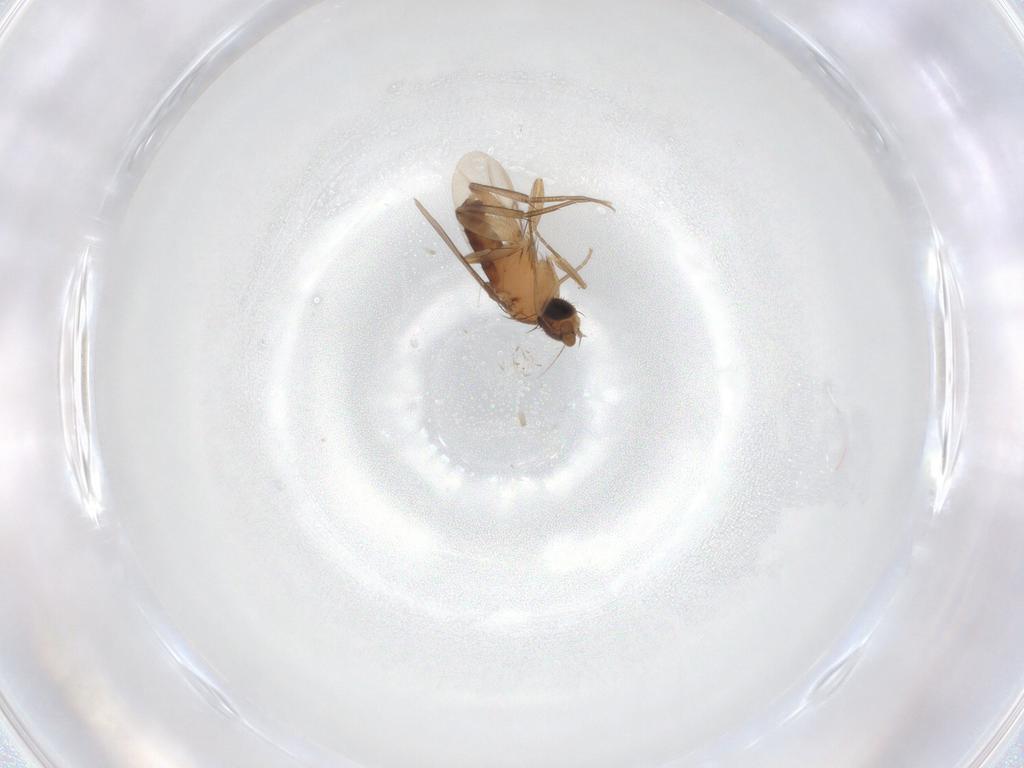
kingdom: Animalia
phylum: Arthropoda
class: Insecta
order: Diptera
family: Phoridae
